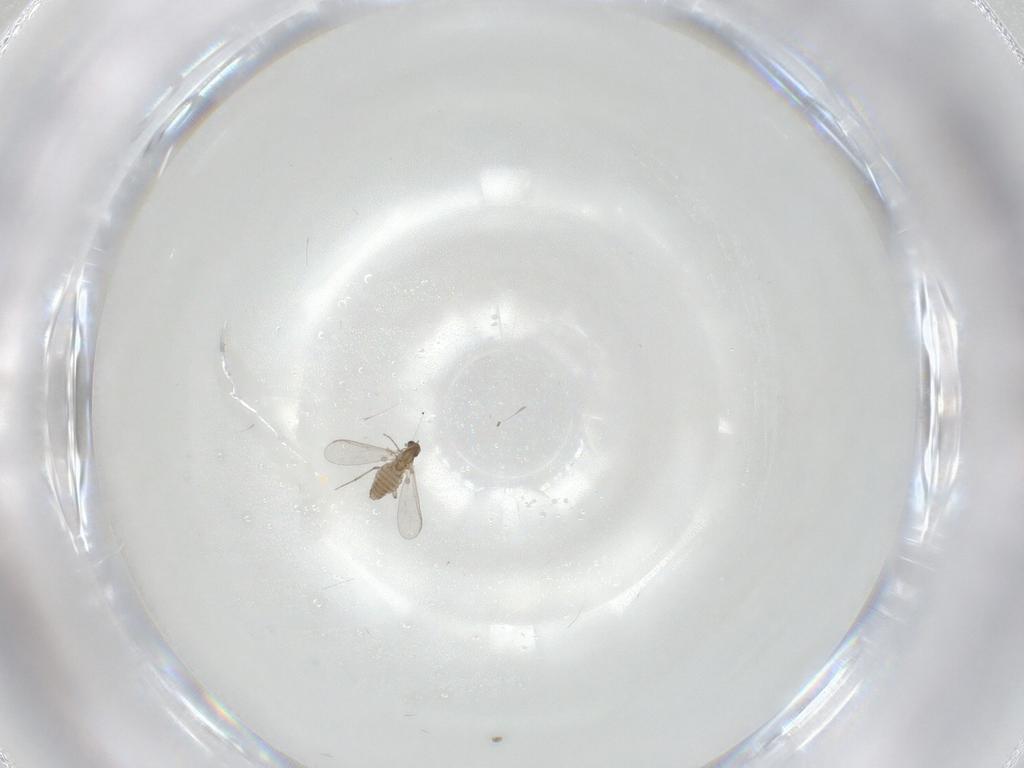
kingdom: Animalia
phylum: Arthropoda
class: Insecta
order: Diptera
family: Chironomidae
